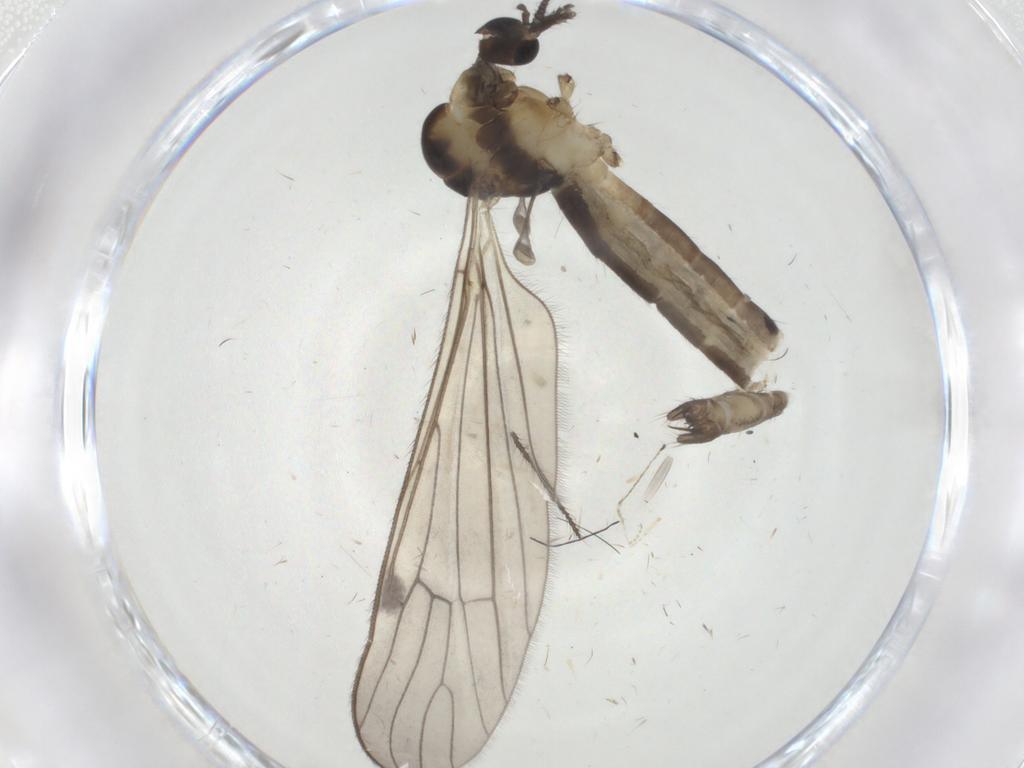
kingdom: Animalia
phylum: Arthropoda
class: Insecta
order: Diptera
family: Limoniidae
